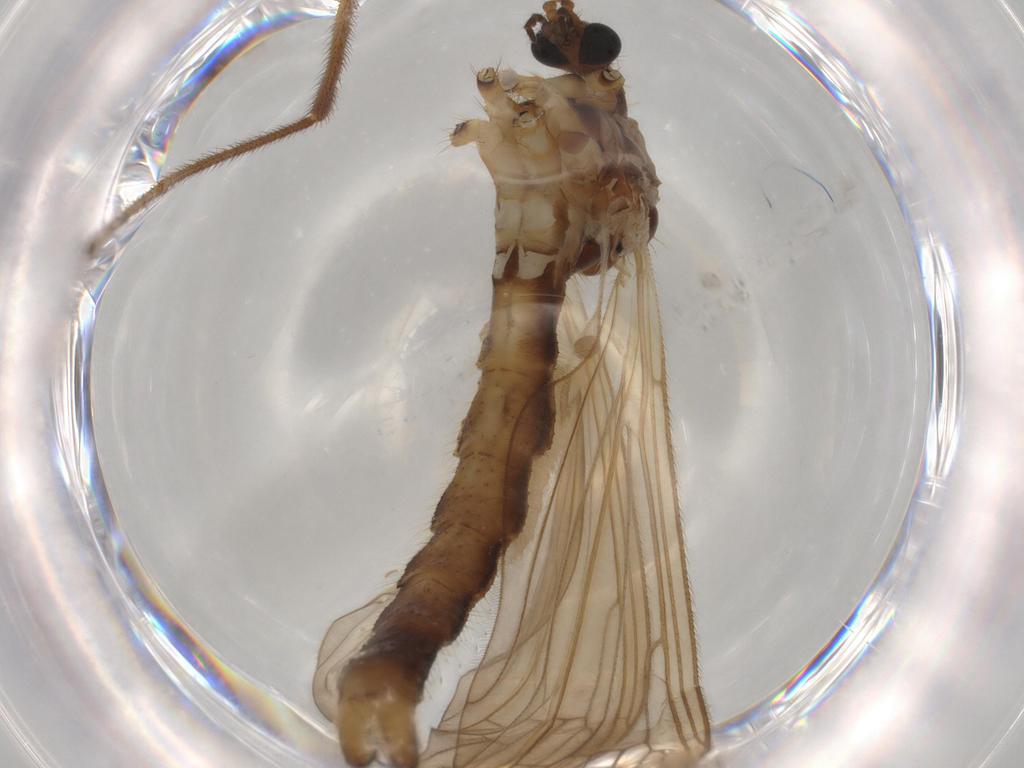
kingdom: Animalia
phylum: Arthropoda
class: Insecta
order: Diptera
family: Hybotidae
